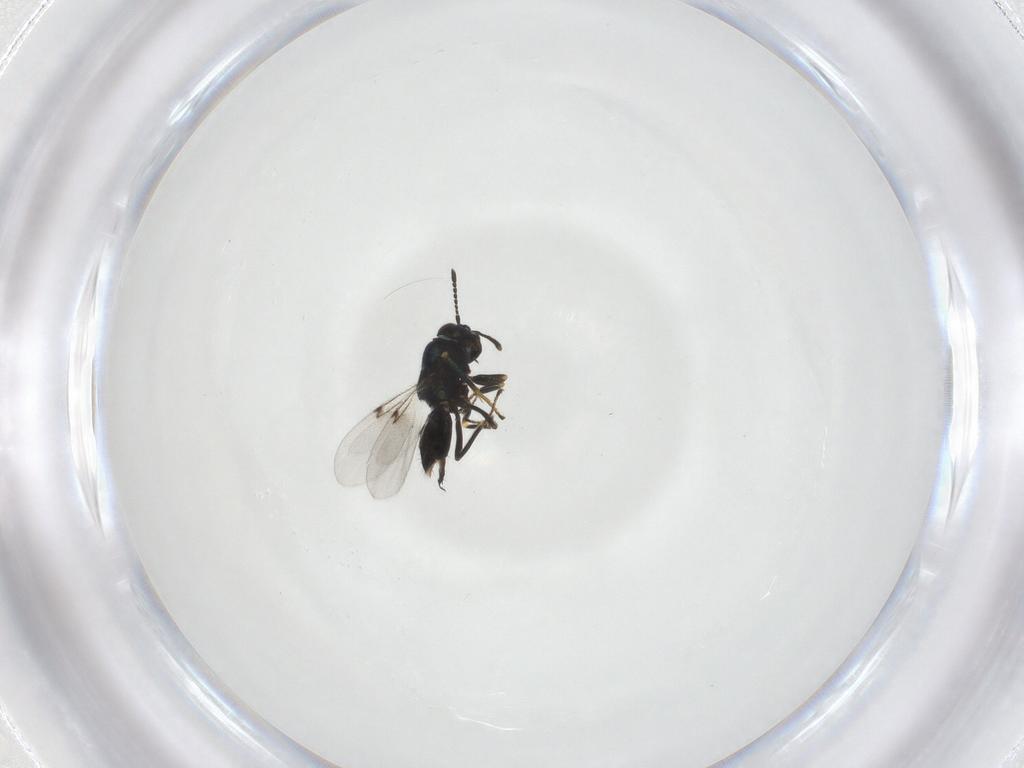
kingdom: Animalia
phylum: Arthropoda
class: Insecta
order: Hymenoptera
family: Encyrtidae
